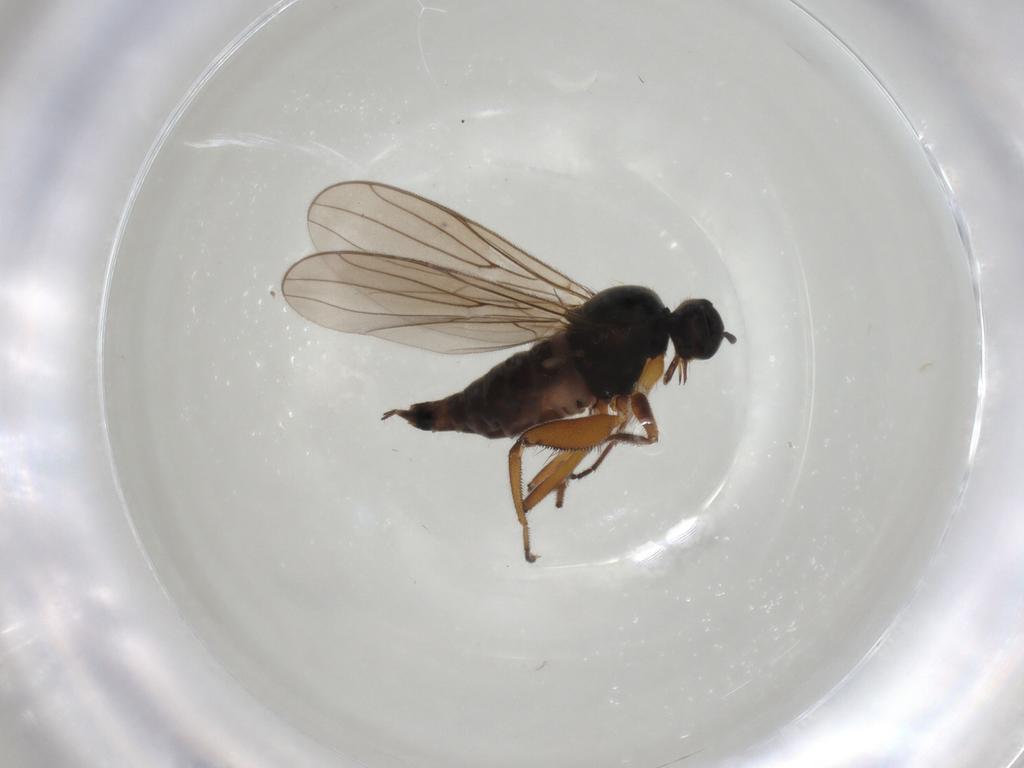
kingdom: Animalia
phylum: Arthropoda
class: Insecta
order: Diptera
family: Hybotidae
